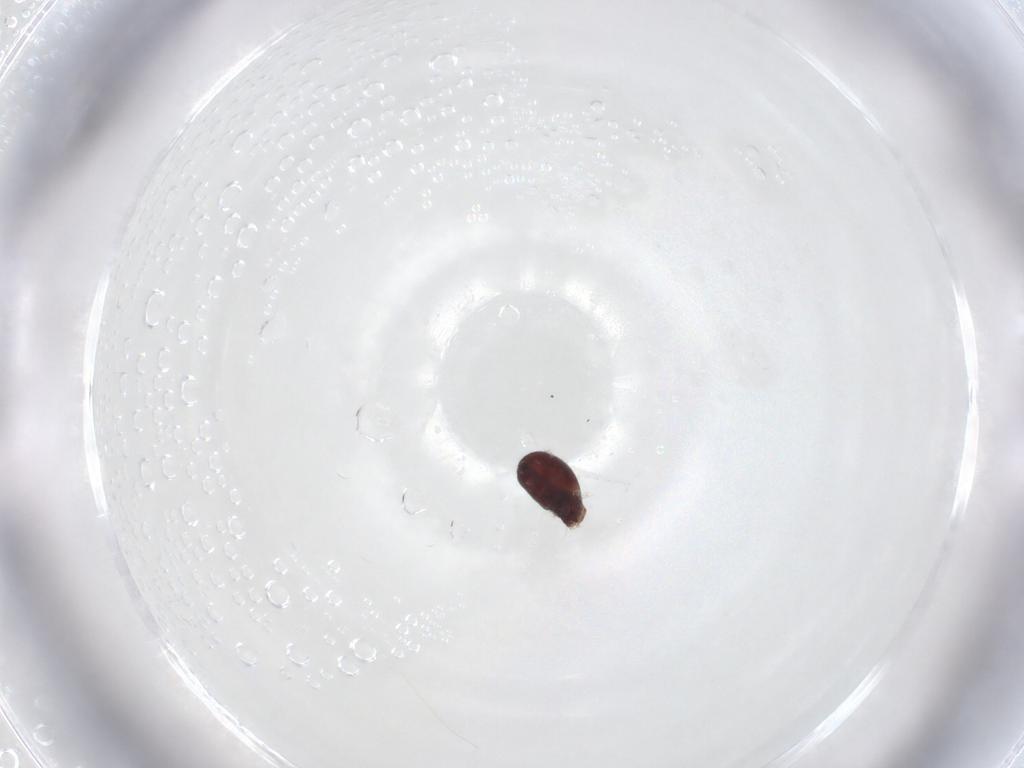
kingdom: Animalia
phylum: Arthropoda
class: Arachnida
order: Sarcoptiformes
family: Humerobatidae
